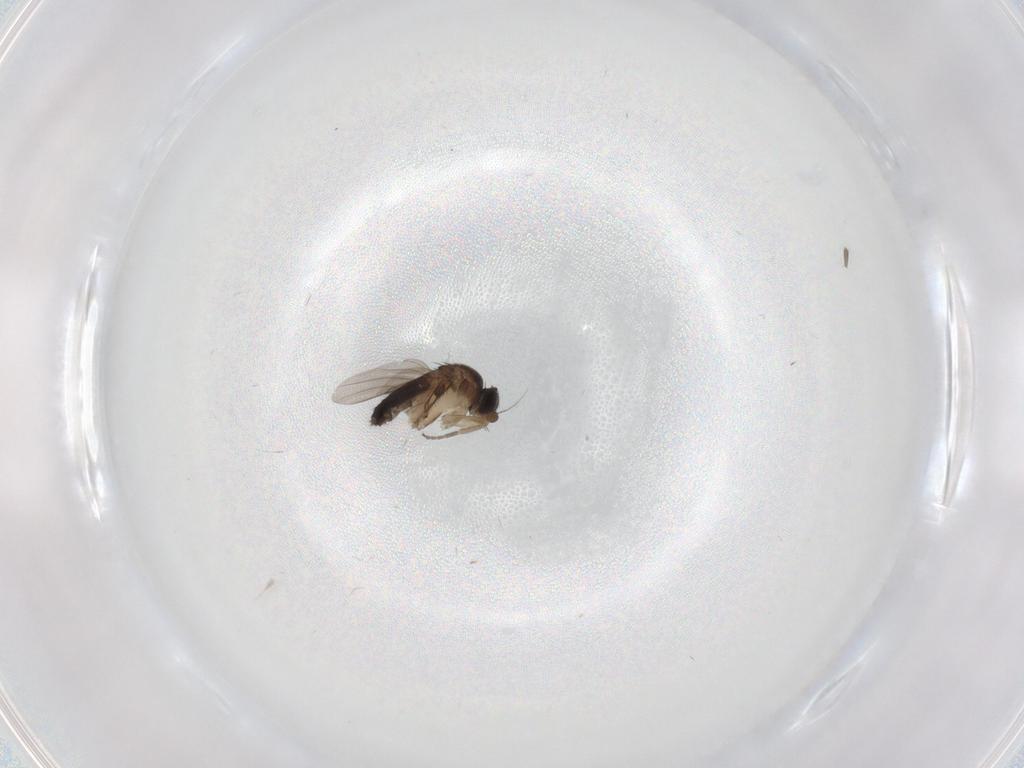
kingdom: Animalia
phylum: Arthropoda
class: Insecta
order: Diptera
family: Phoridae
